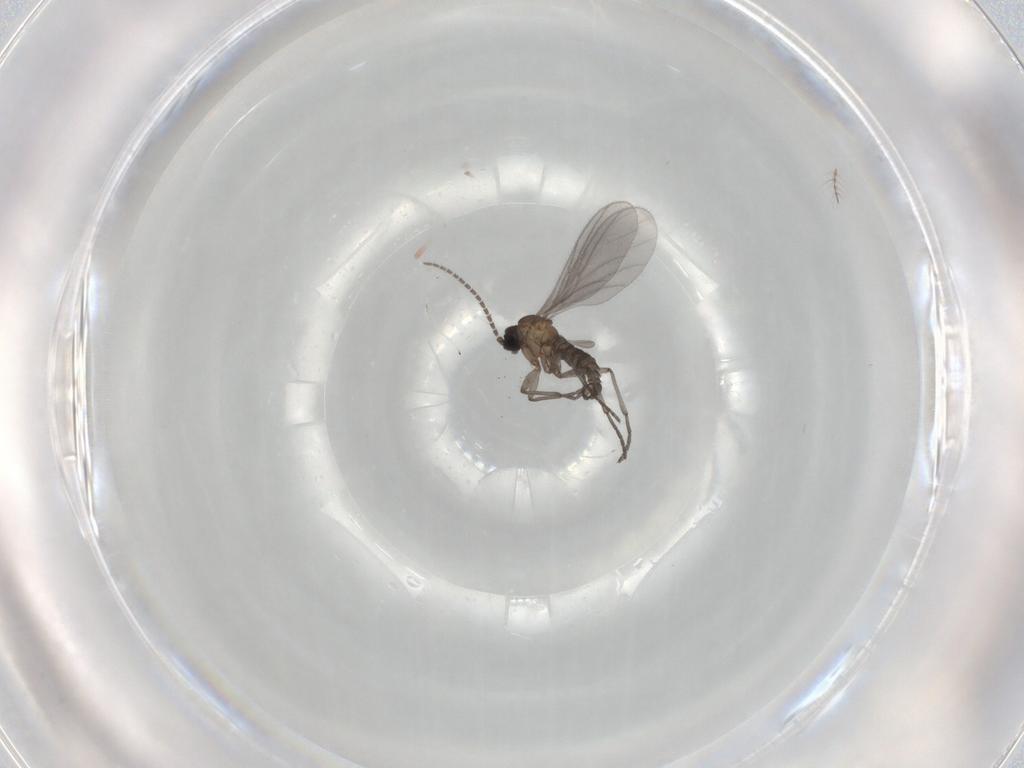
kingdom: Animalia
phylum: Arthropoda
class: Insecta
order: Diptera
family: Sciaridae
